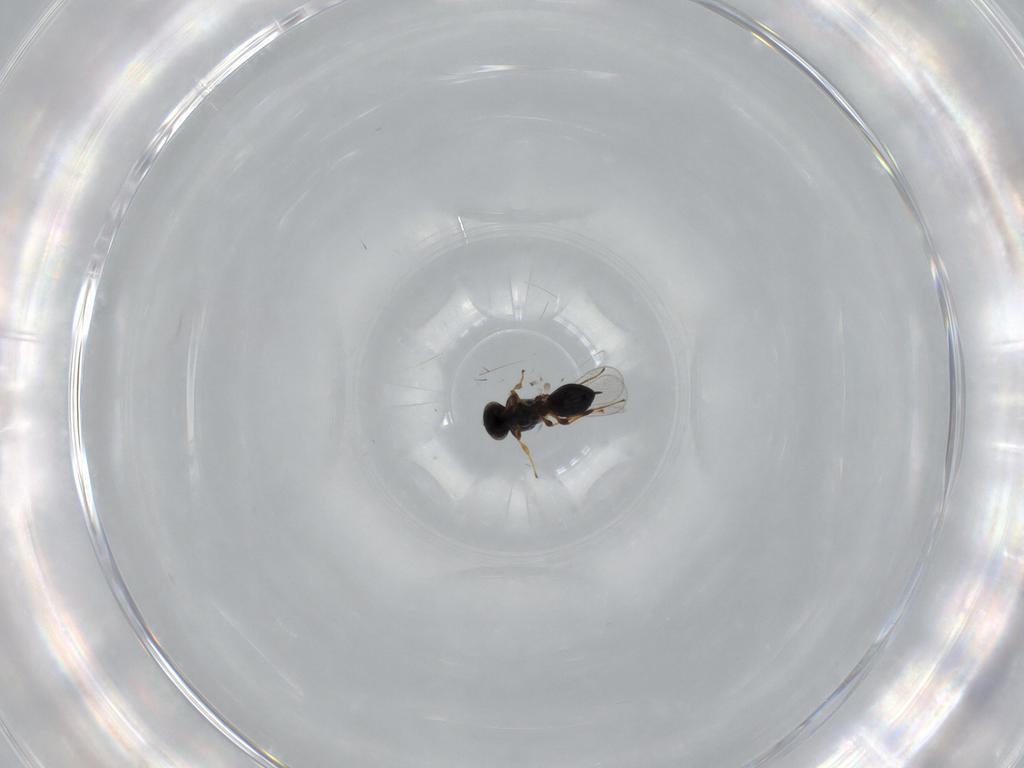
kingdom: Animalia
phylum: Arthropoda
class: Insecta
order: Hymenoptera
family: Platygastridae
